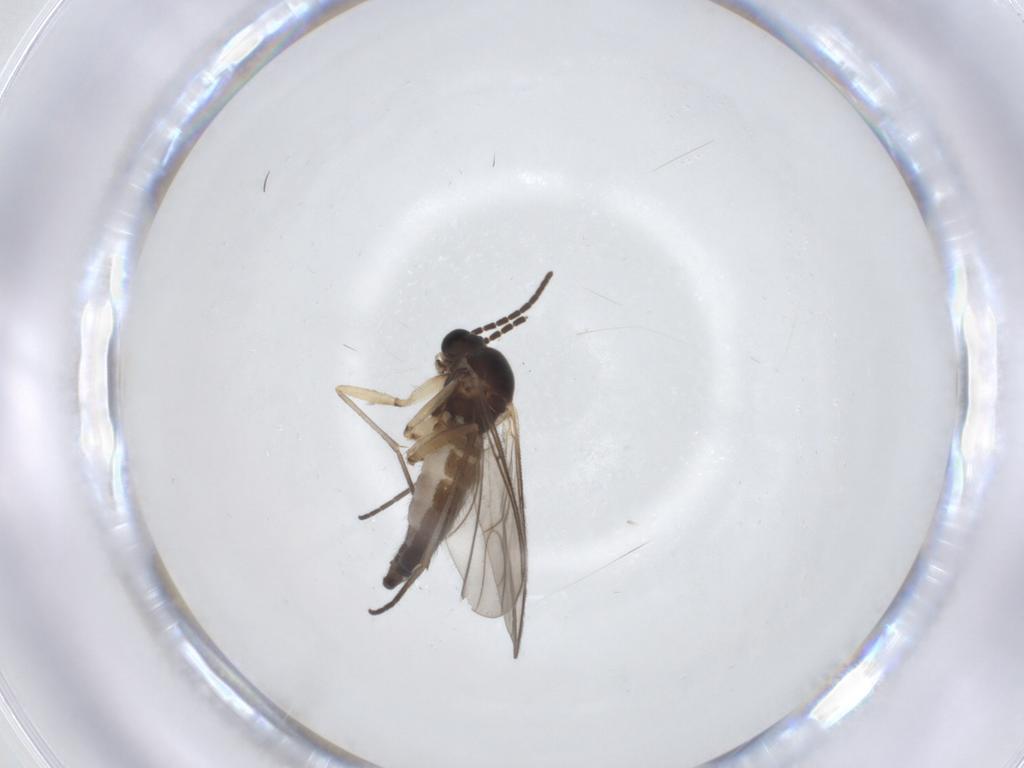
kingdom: Animalia
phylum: Arthropoda
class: Insecta
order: Diptera
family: Sciaridae
